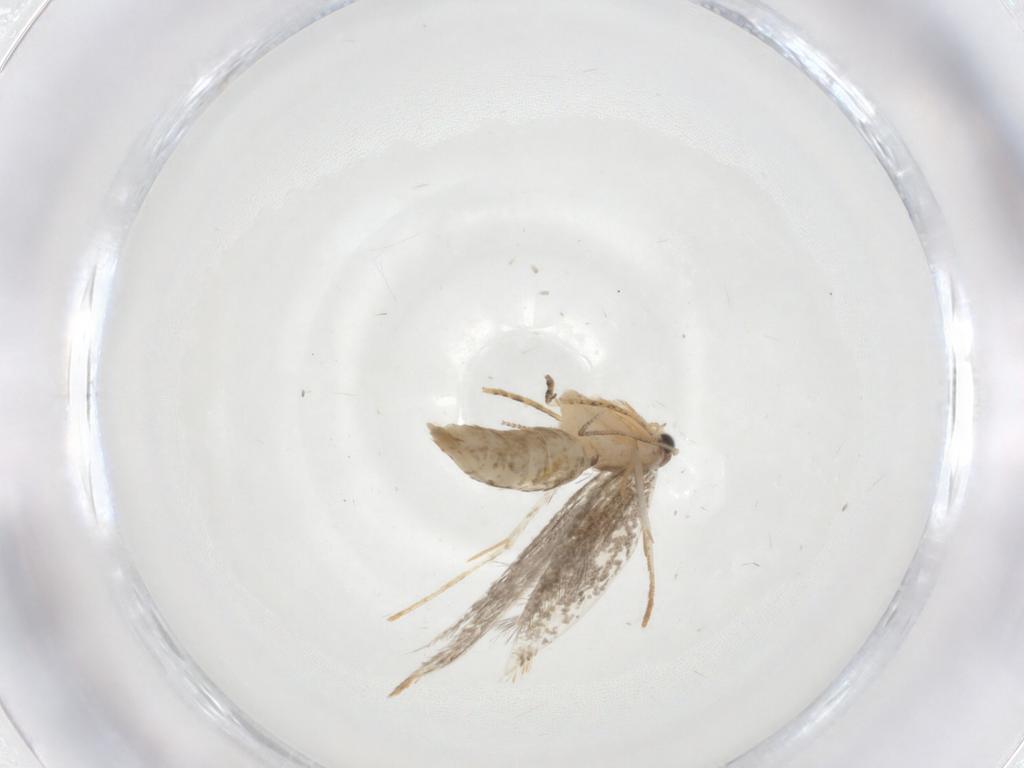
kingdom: Animalia
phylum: Arthropoda
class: Insecta
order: Lepidoptera
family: Tineidae
